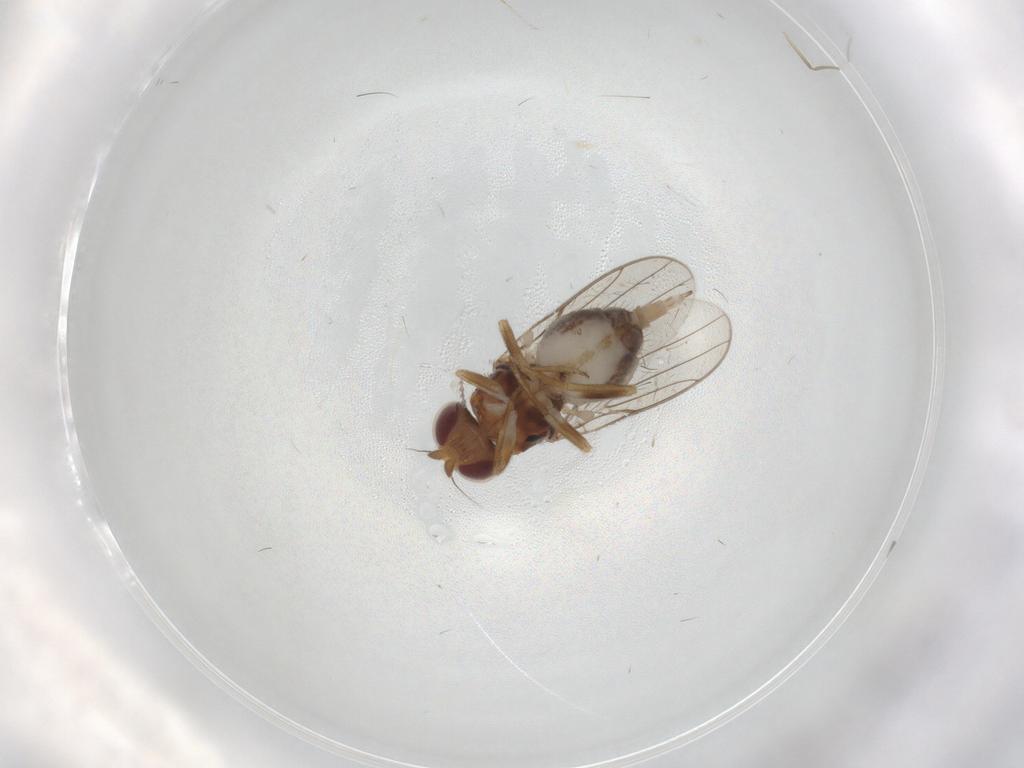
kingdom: Animalia
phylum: Arthropoda
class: Insecta
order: Diptera
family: Chloropidae
